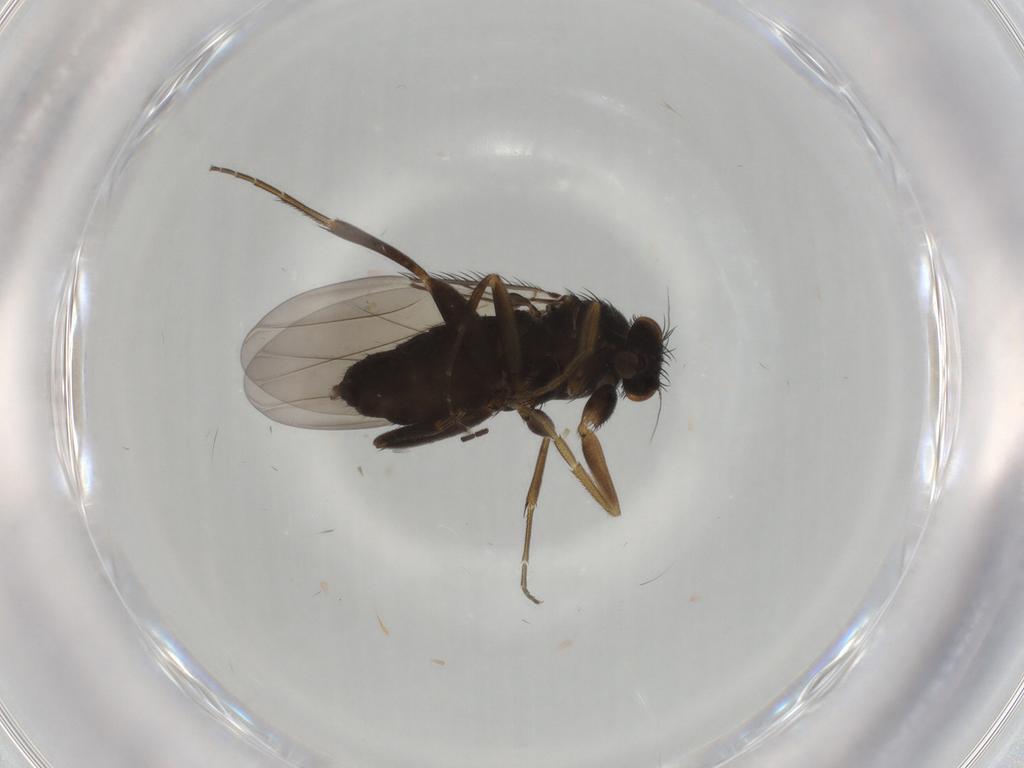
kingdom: Animalia
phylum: Arthropoda
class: Insecta
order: Diptera
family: Phoridae
